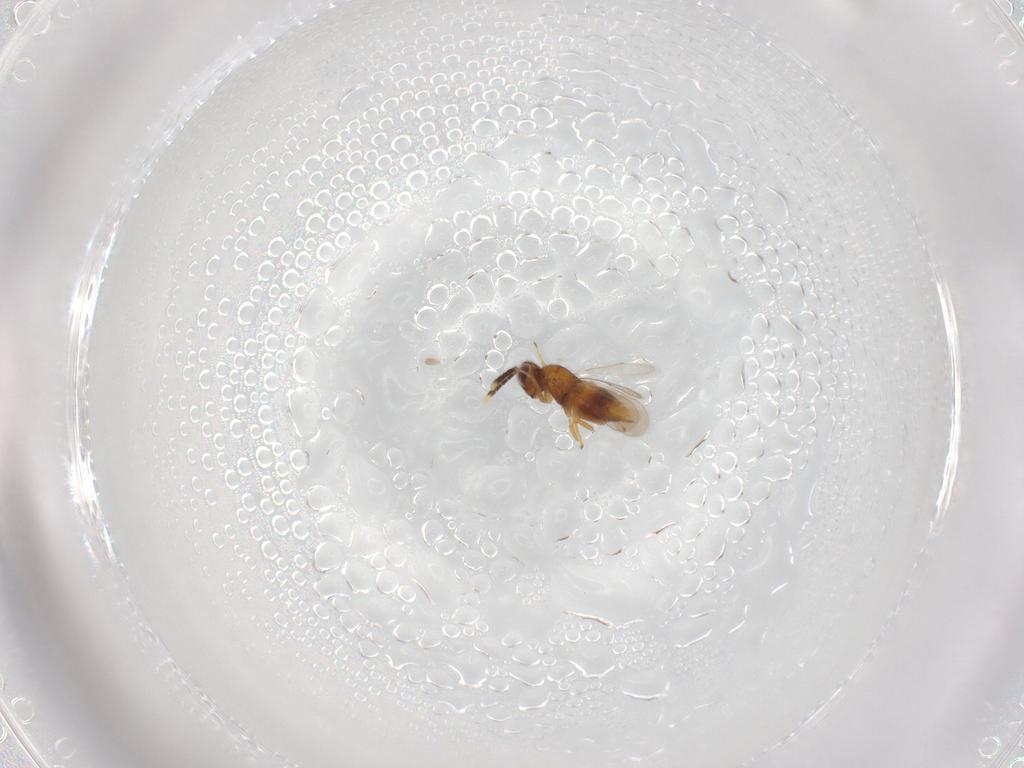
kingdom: Animalia
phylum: Arthropoda
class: Insecta
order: Hymenoptera
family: Aphelinidae
